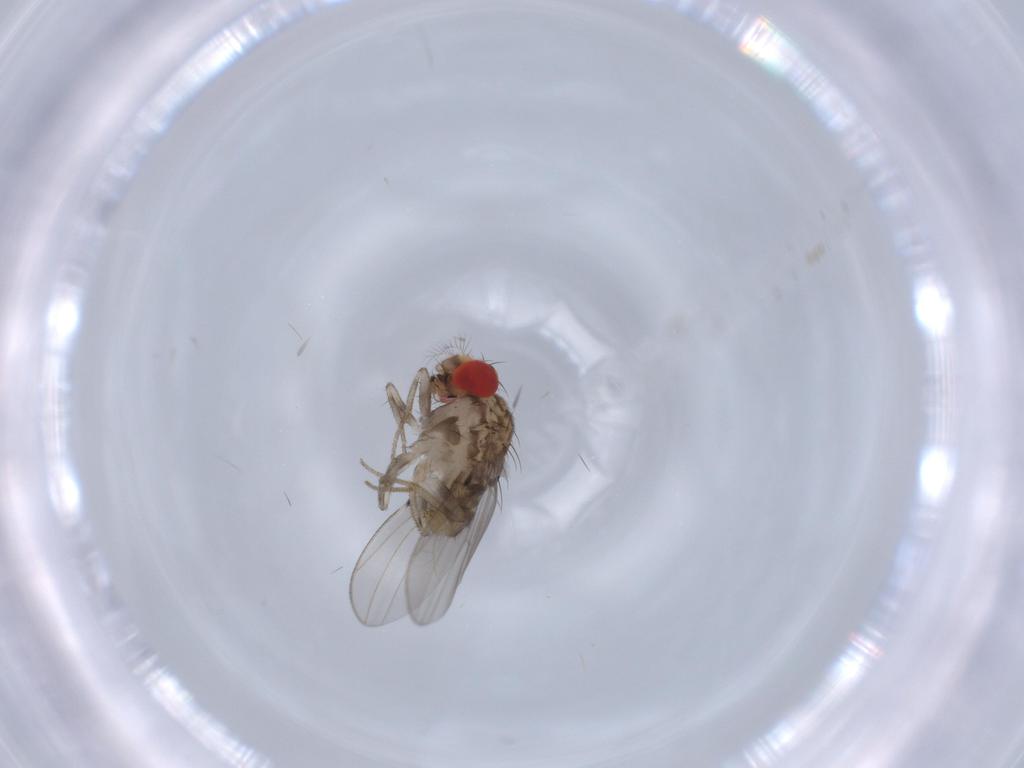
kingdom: Animalia
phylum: Arthropoda
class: Insecta
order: Diptera
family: Drosophilidae
